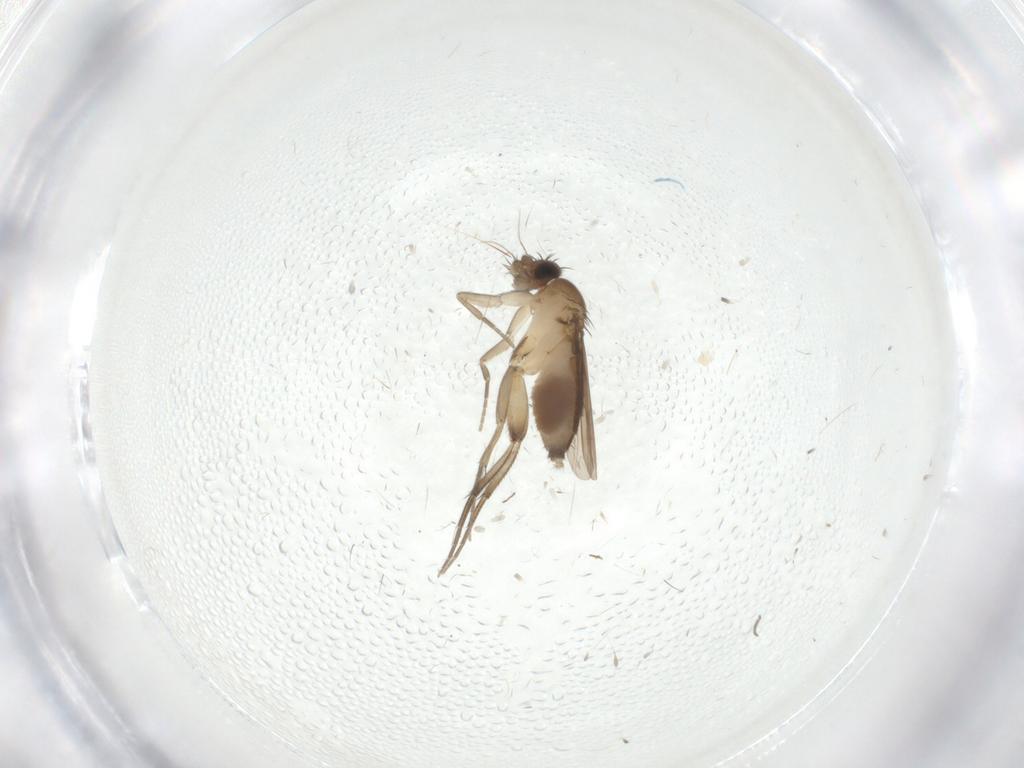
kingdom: Animalia
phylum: Arthropoda
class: Insecta
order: Diptera
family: Phoridae
